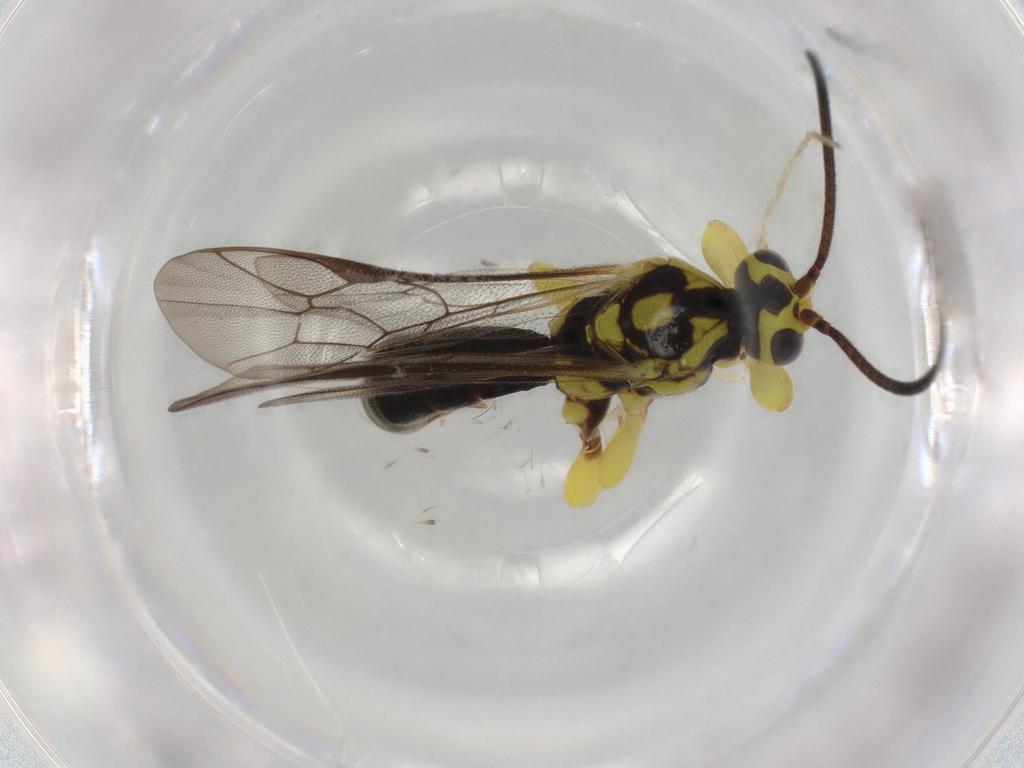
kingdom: Animalia
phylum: Arthropoda
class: Insecta
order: Hymenoptera
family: Ichneumonidae
